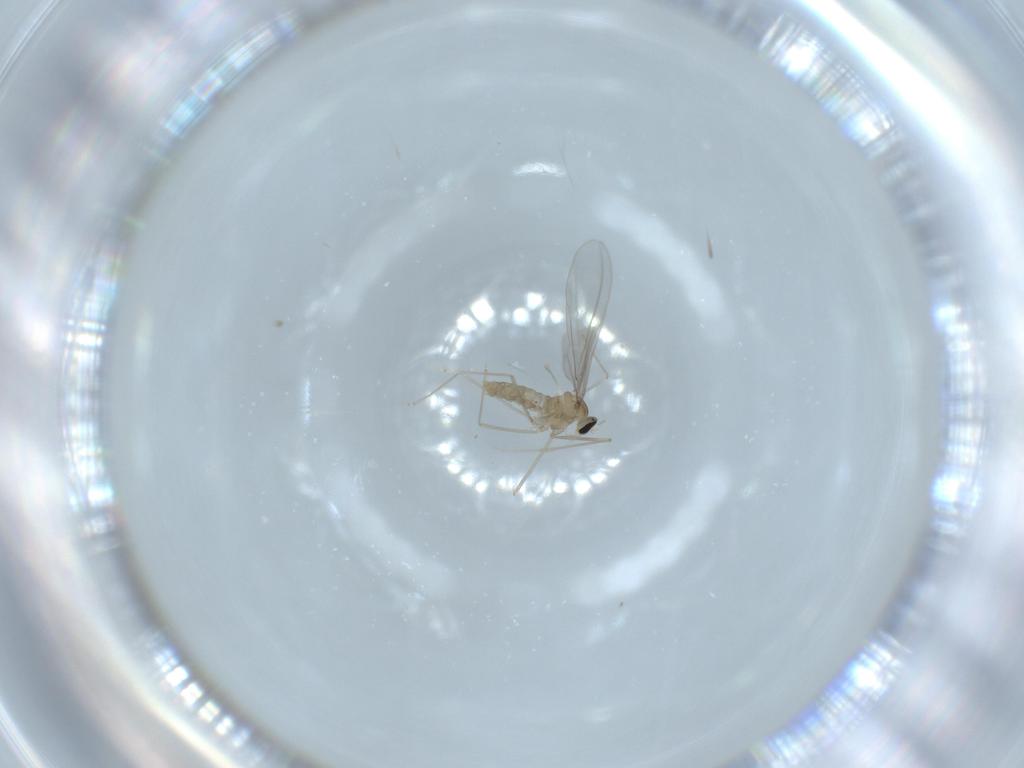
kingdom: Animalia
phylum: Arthropoda
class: Insecta
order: Diptera
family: Cecidomyiidae
